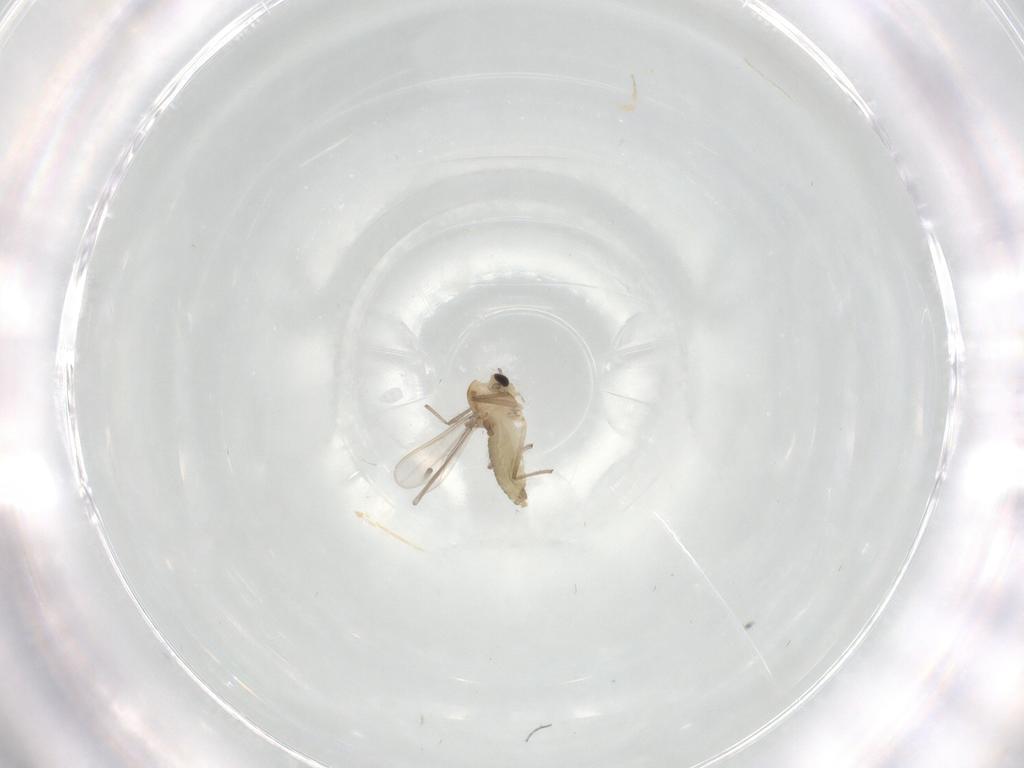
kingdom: Animalia
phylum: Arthropoda
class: Insecta
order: Diptera
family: Chironomidae
